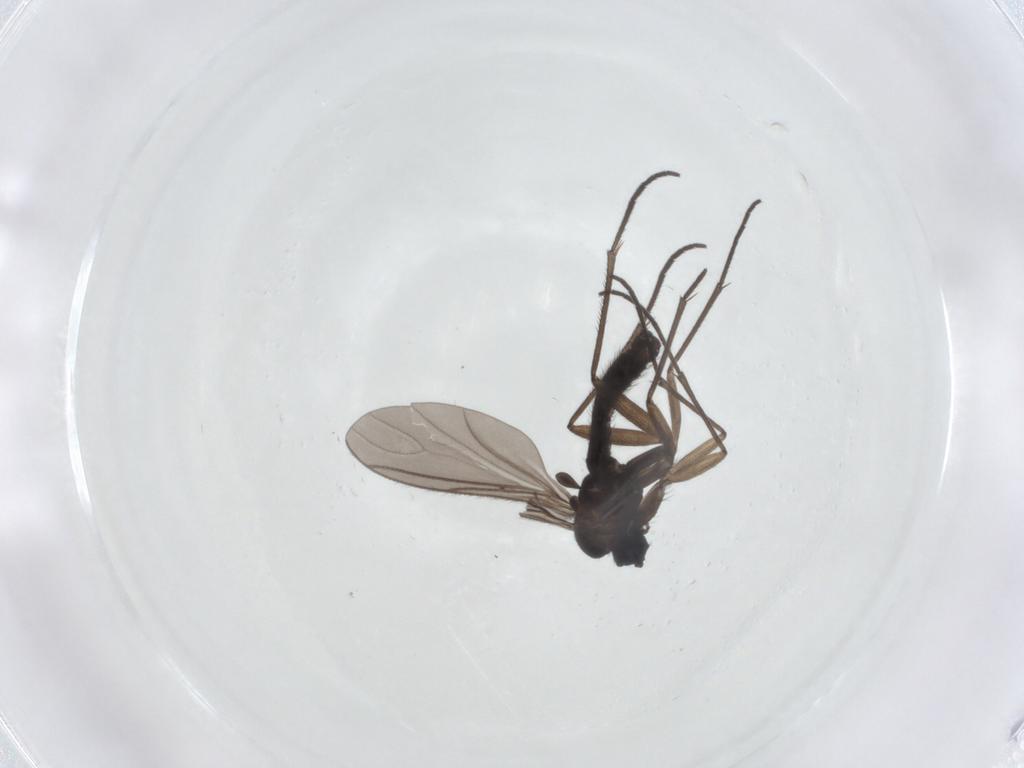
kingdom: Animalia
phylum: Arthropoda
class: Insecta
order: Diptera
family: Sciaridae
